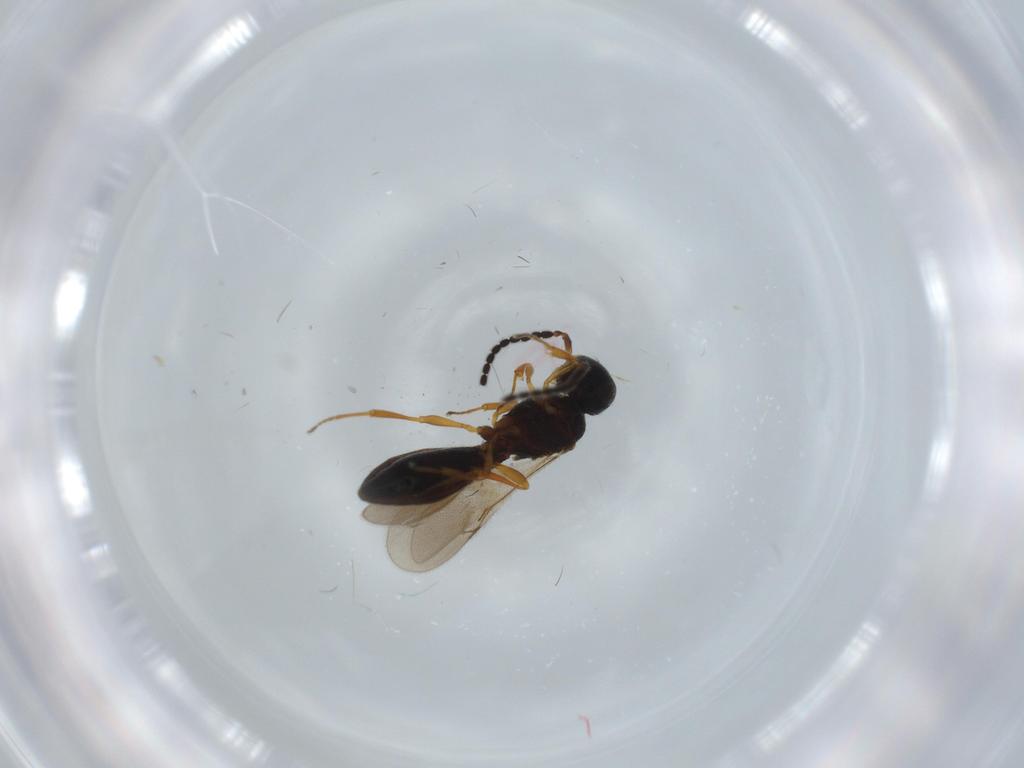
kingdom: Animalia
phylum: Arthropoda
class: Insecta
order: Hymenoptera
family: Scelionidae
